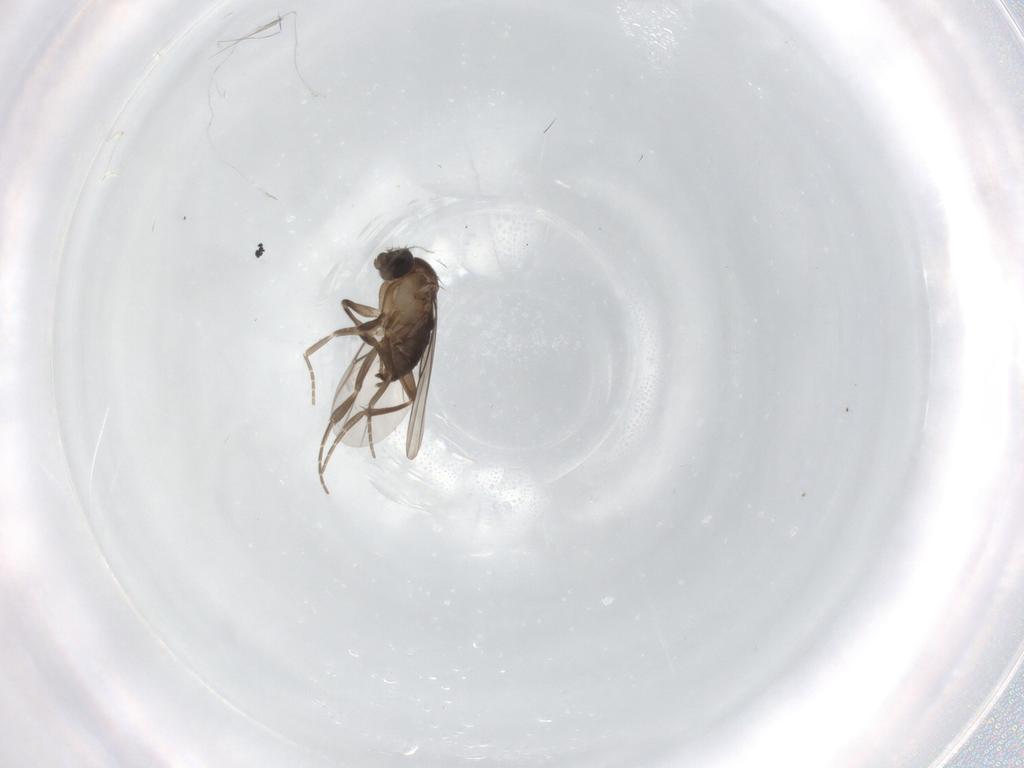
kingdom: Animalia
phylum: Arthropoda
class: Insecta
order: Diptera
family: Limoniidae
